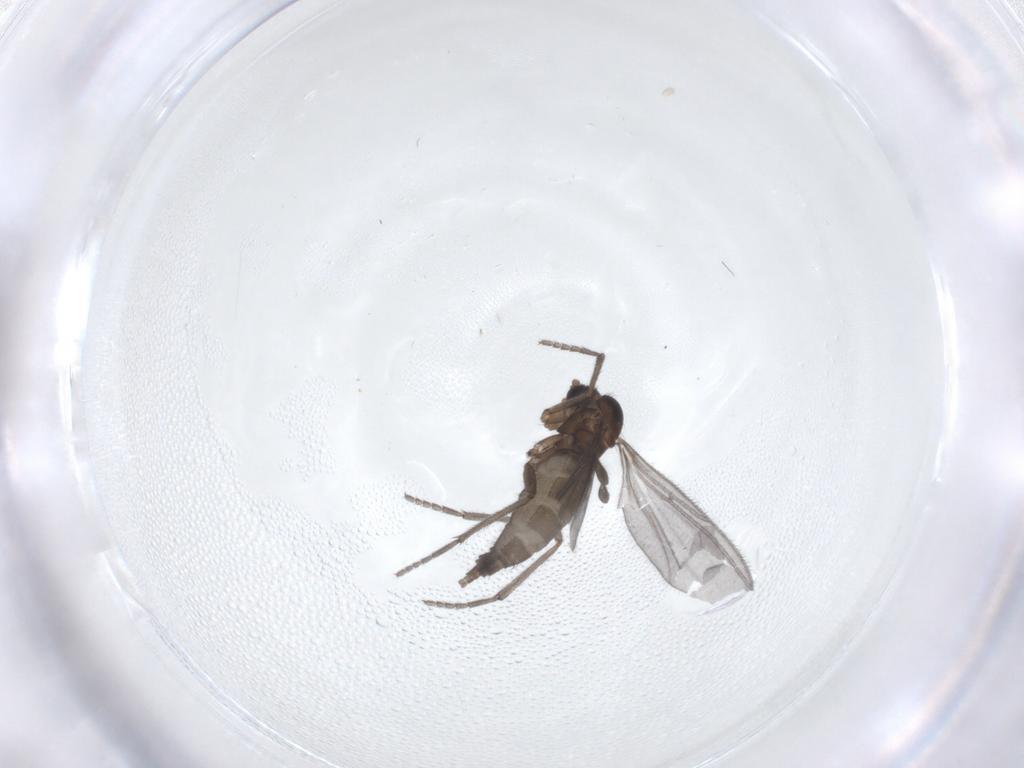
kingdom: Animalia
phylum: Arthropoda
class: Insecta
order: Diptera
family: Sciaridae
